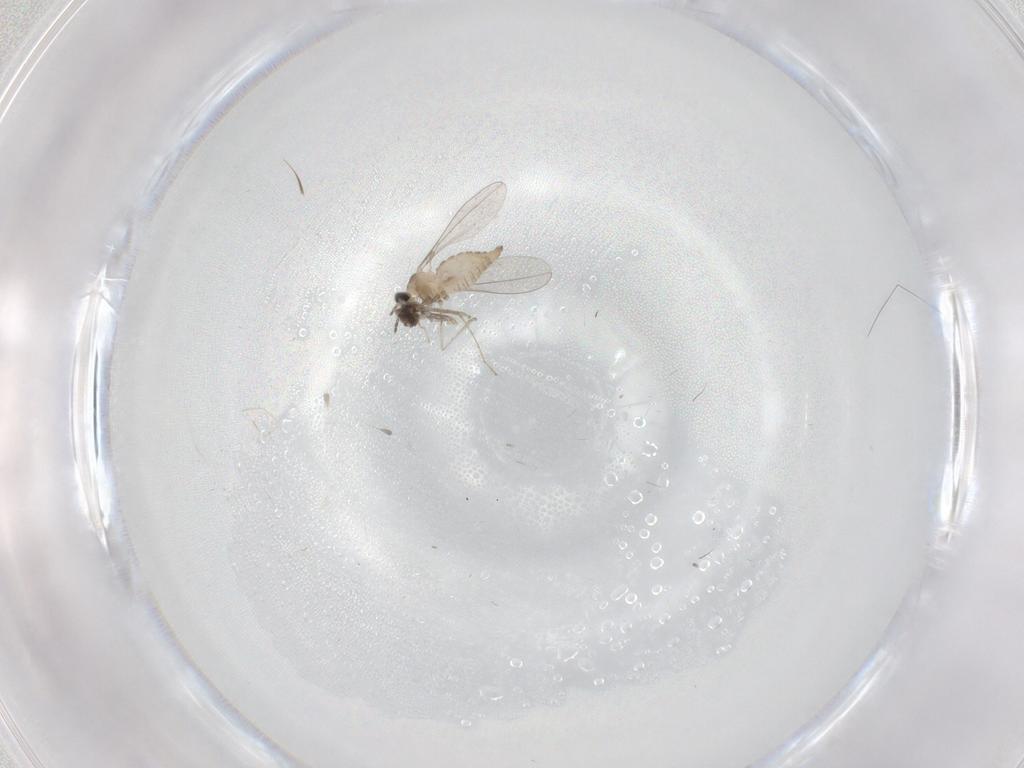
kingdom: Animalia
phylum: Arthropoda
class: Insecta
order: Diptera
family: Cecidomyiidae
